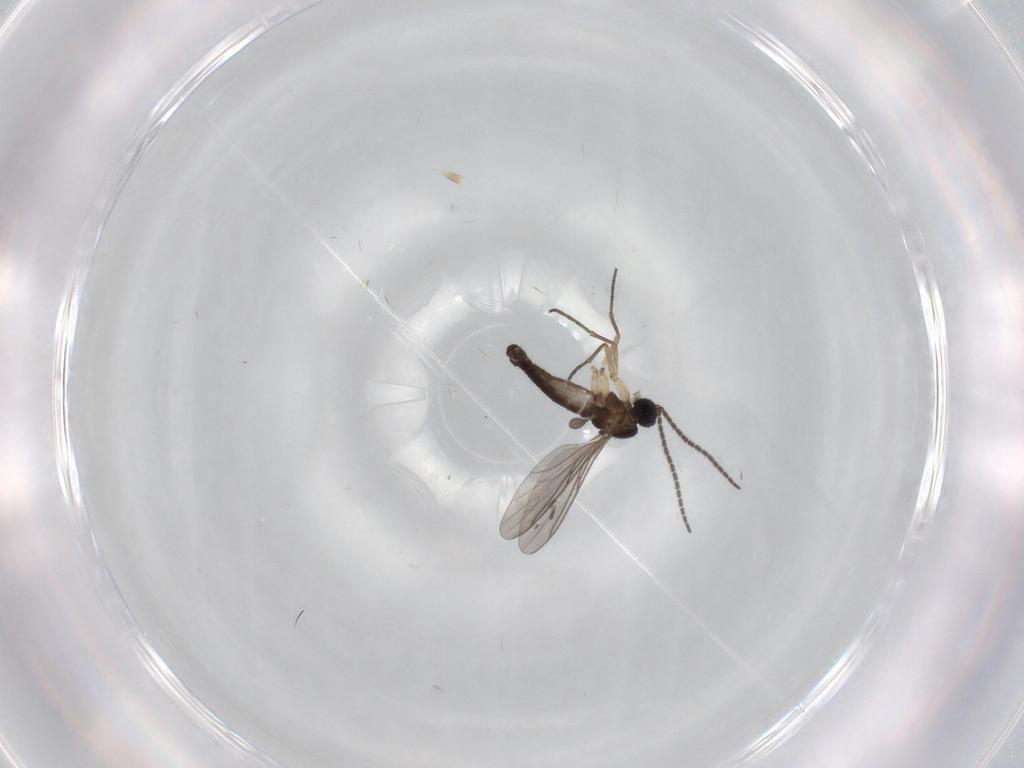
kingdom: Animalia
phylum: Arthropoda
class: Insecta
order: Diptera
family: Sciaridae
